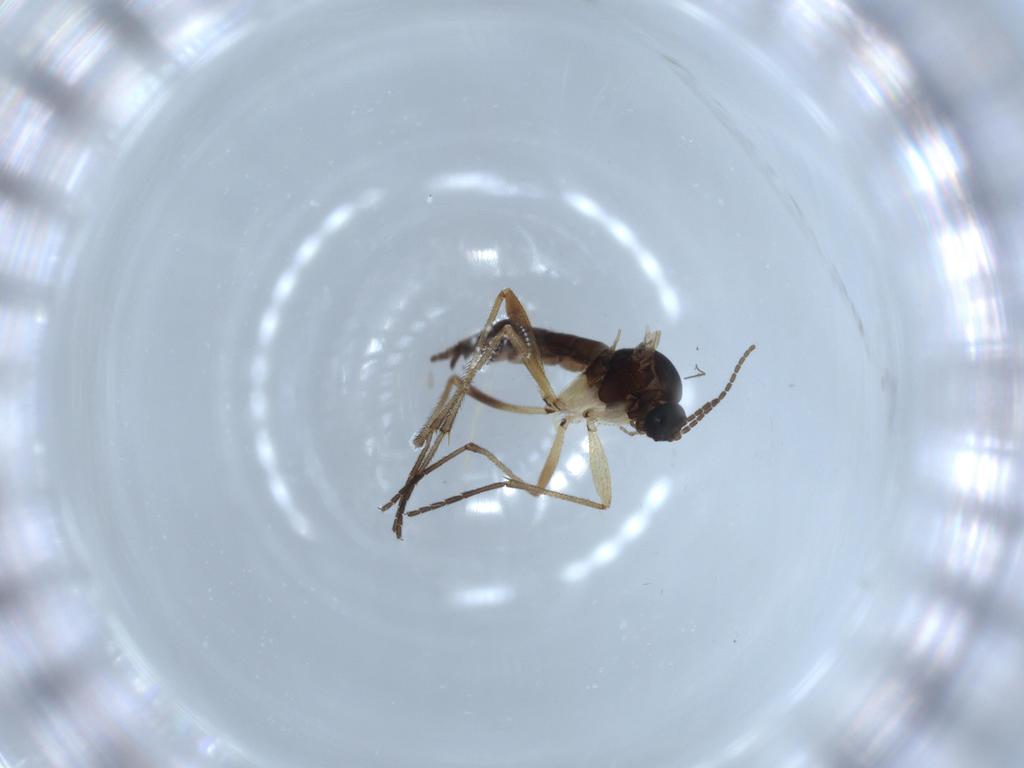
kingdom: Animalia
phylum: Arthropoda
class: Insecta
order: Diptera
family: Sciaridae
